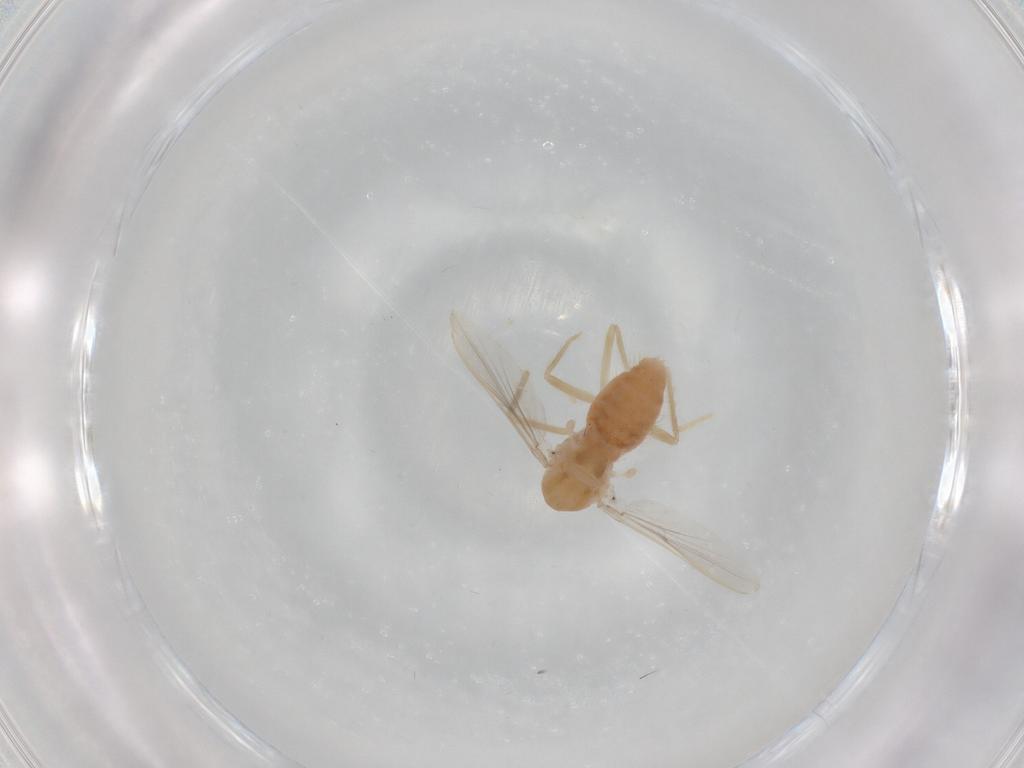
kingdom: Animalia
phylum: Arthropoda
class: Insecta
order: Diptera
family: Chironomidae
